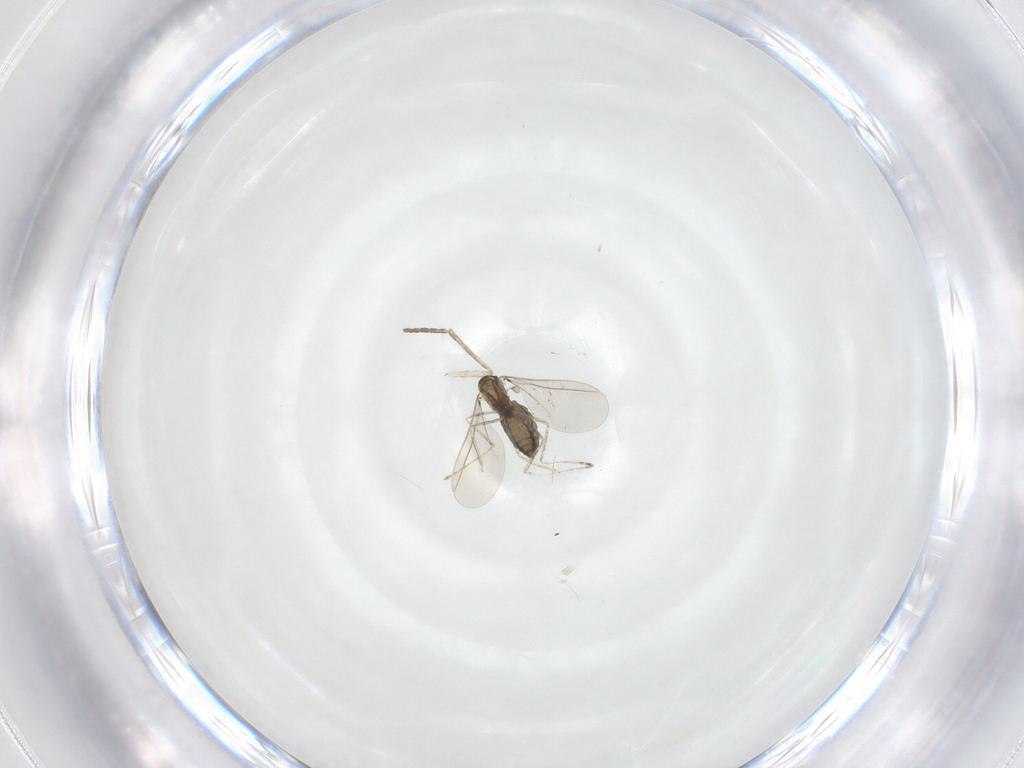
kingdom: Animalia
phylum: Arthropoda
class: Insecta
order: Diptera
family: Psychodidae
